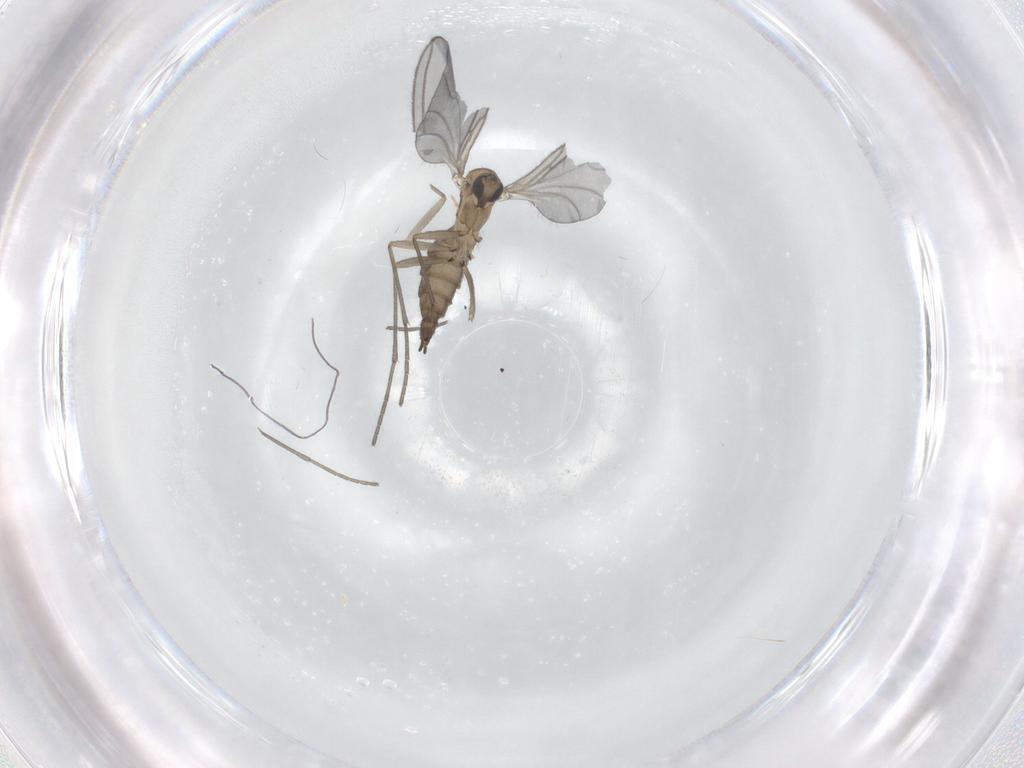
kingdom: Animalia
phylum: Arthropoda
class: Insecta
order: Diptera
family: Sciaridae
